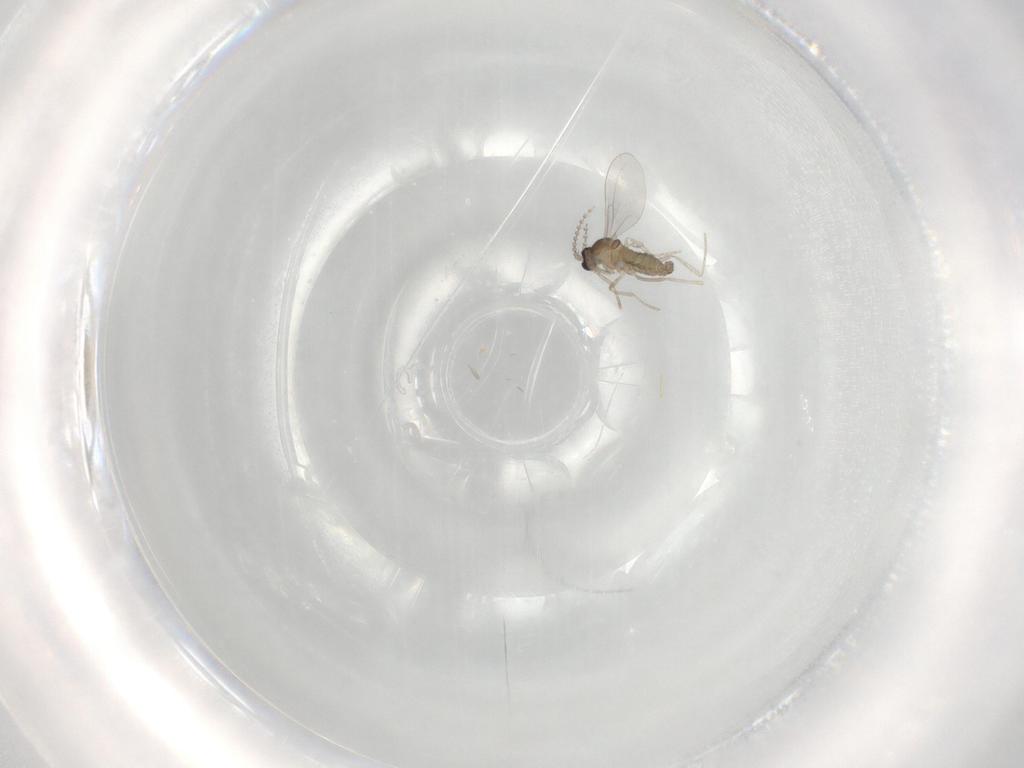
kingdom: Animalia
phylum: Arthropoda
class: Insecta
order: Diptera
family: Cecidomyiidae
